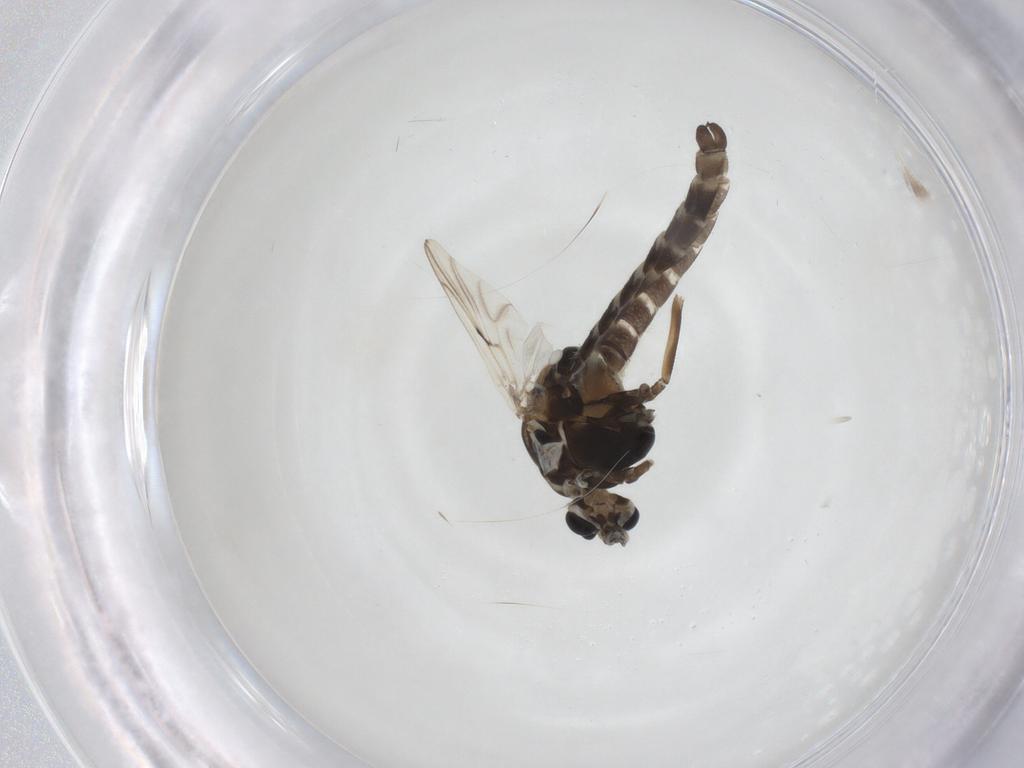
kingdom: Animalia
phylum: Arthropoda
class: Insecta
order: Diptera
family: Chironomidae
